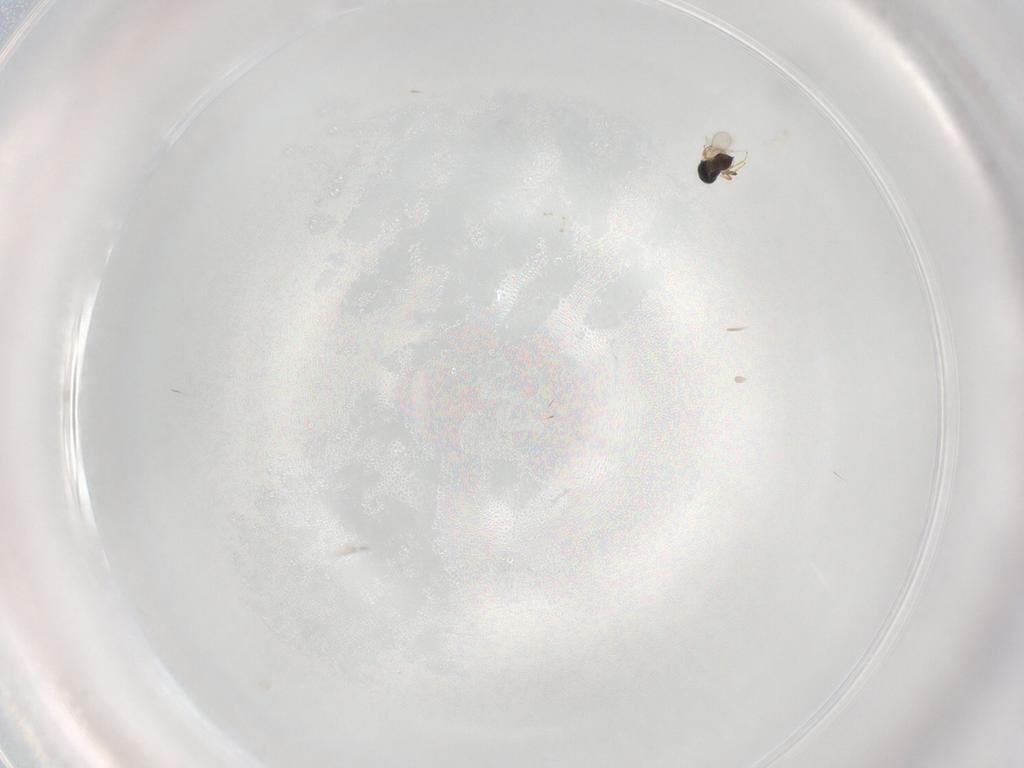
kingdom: Animalia
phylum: Arthropoda
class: Insecta
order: Hymenoptera
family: Scelionidae
